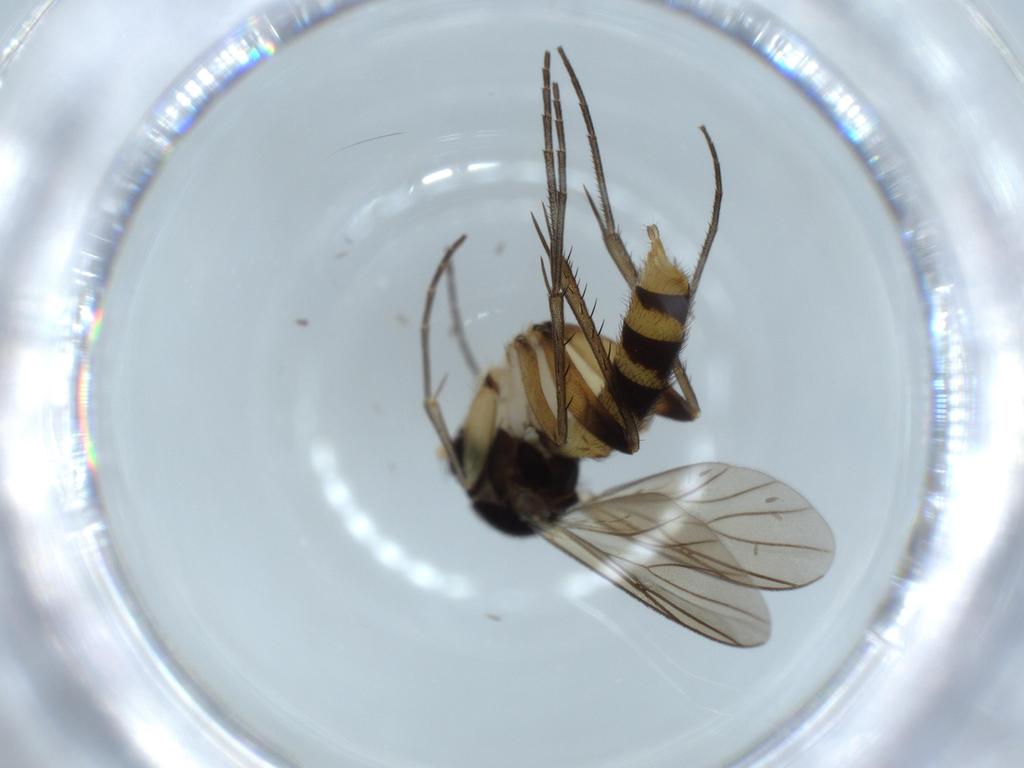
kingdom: Animalia
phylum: Arthropoda
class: Insecta
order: Diptera
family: Mycetophilidae
